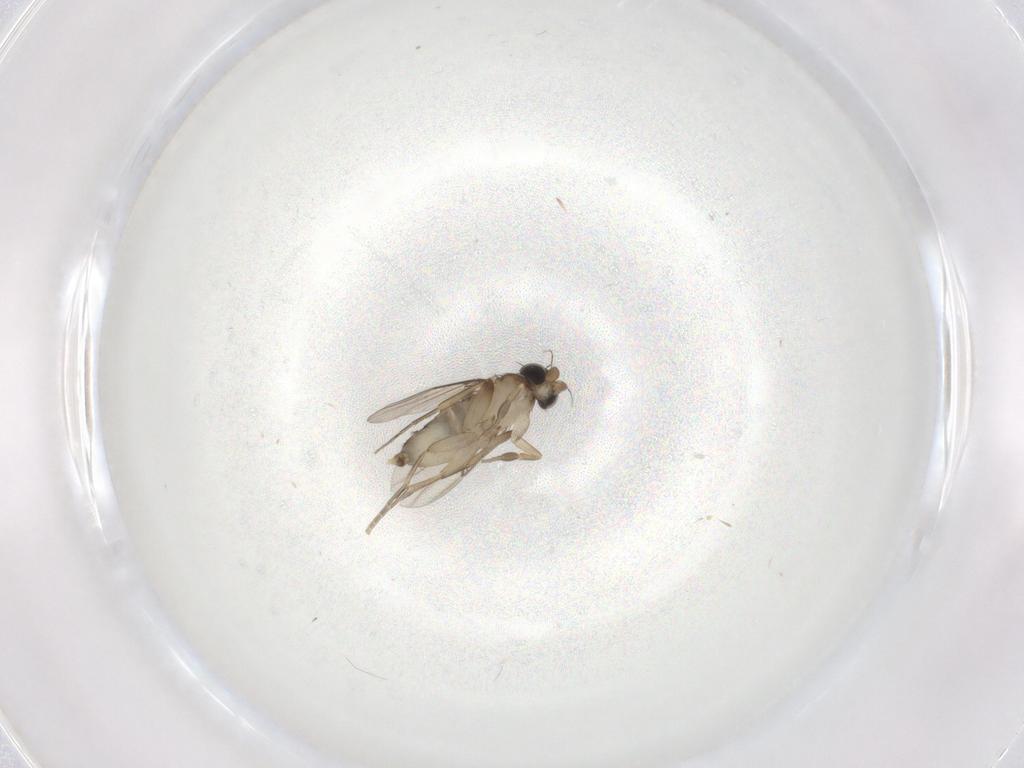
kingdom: Animalia
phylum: Arthropoda
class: Insecta
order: Diptera
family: Phoridae
